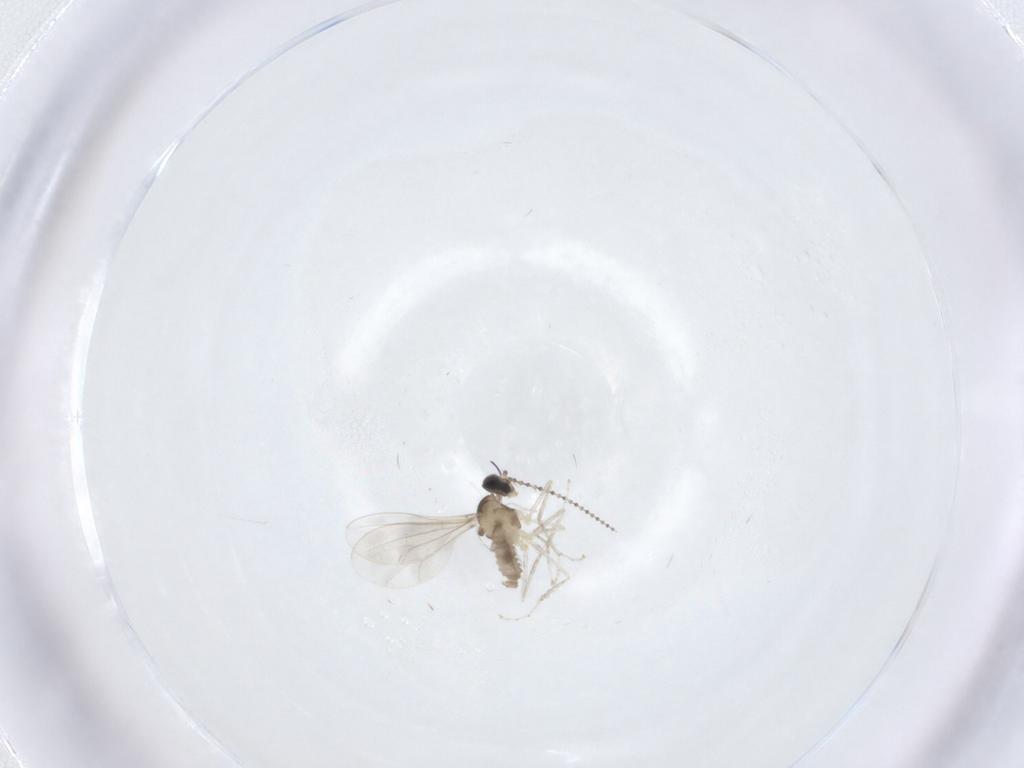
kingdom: Animalia
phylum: Arthropoda
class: Insecta
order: Diptera
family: Cecidomyiidae
